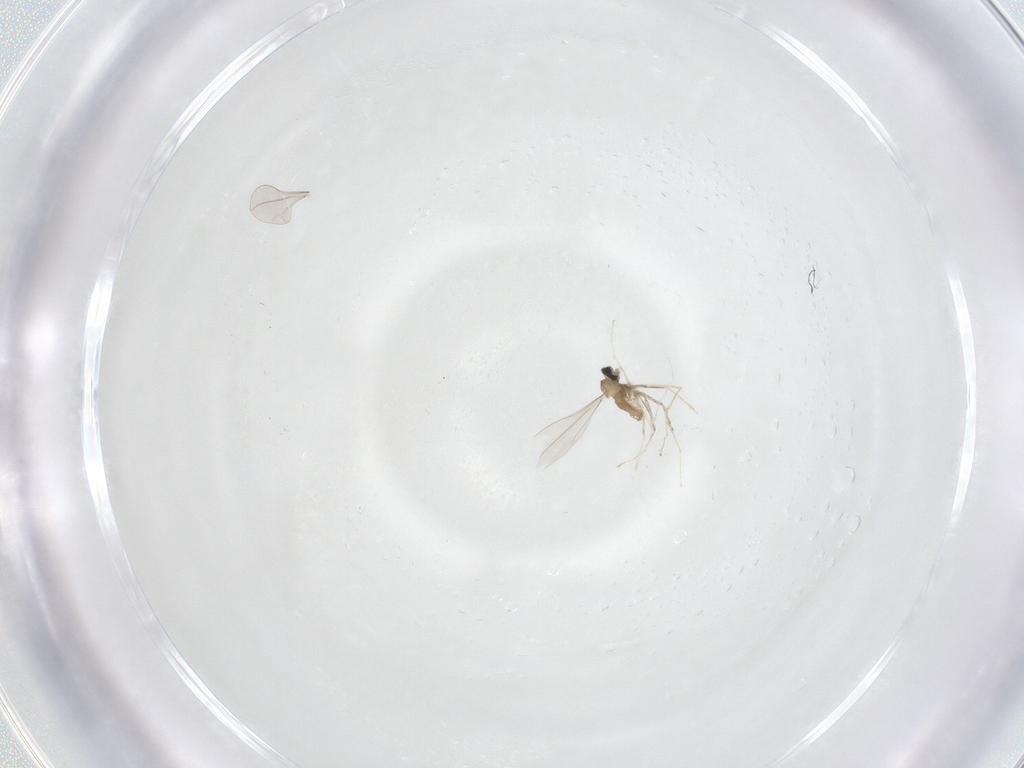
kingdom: Animalia
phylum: Arthropoda
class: Insecta
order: Diptera
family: Cecidomyiidae
